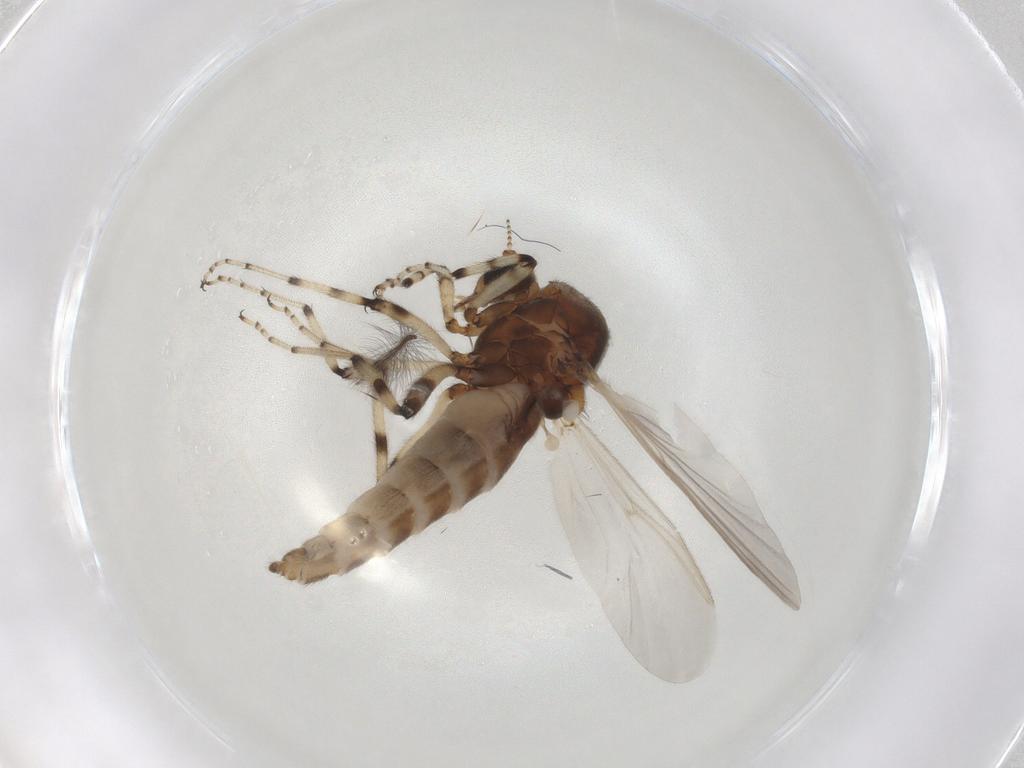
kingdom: Animalia
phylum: Arthropoda
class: Insecta
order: Diptera
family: Ceratopogonidae
